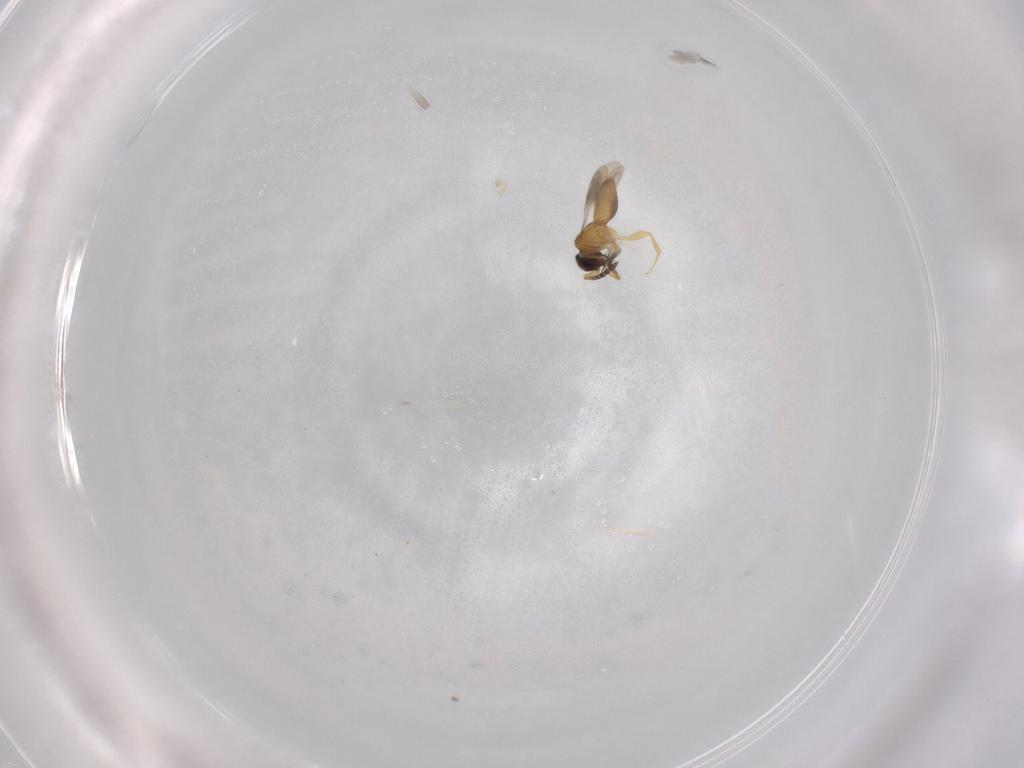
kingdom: Animalia
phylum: Arthropoda
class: Insecta
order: Hymenoptera
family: Ceraphronidae
